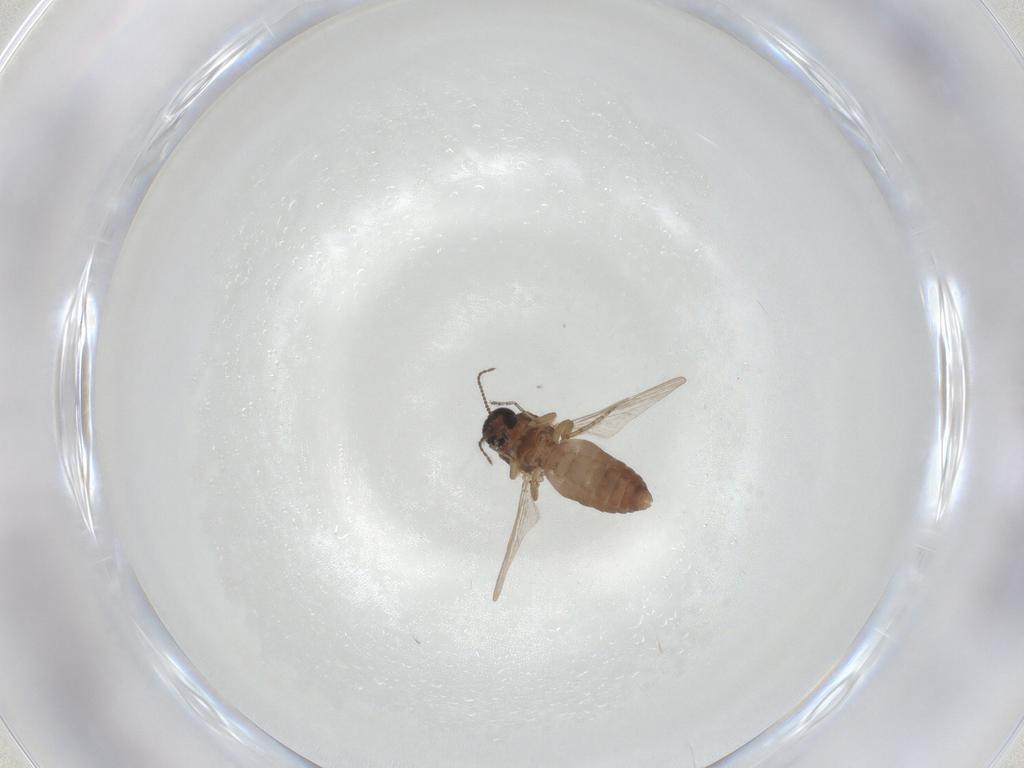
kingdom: Animalia
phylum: Arthropoda
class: Insecta
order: Diptera
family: Ceratopogonidae
